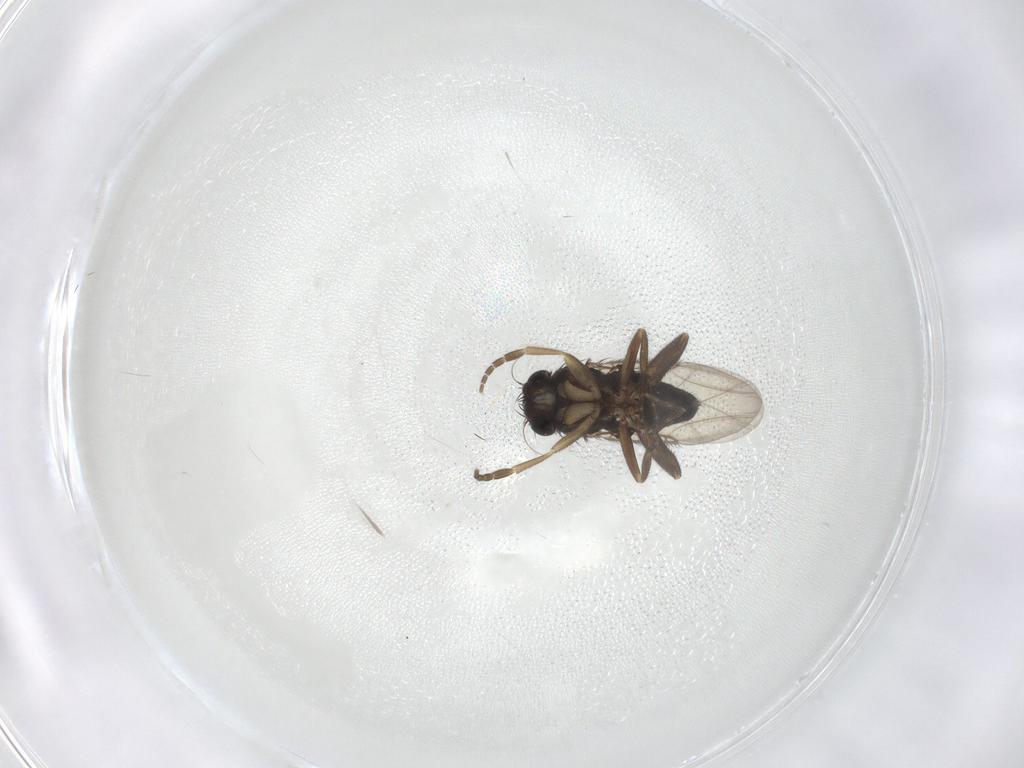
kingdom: Animalia
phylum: Arthropoda
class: Insecta
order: Diptera
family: Phoridae
